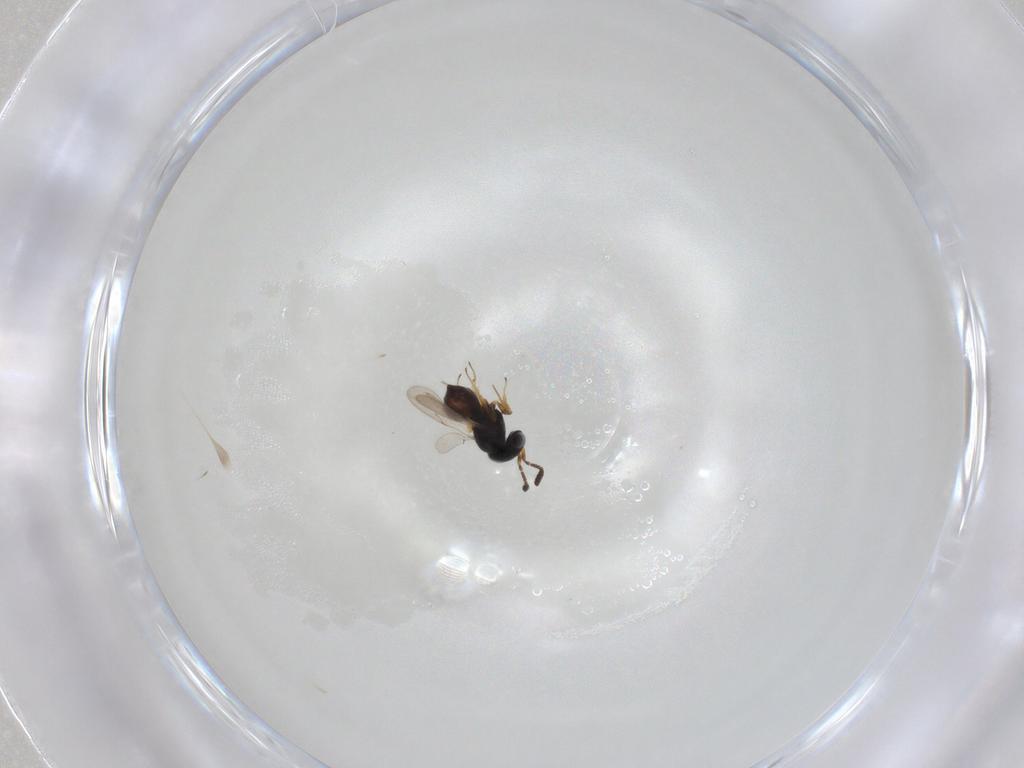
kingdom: Animalia
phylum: Arthropoda
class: Insecta
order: Hymenoptera
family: Scelionidae
